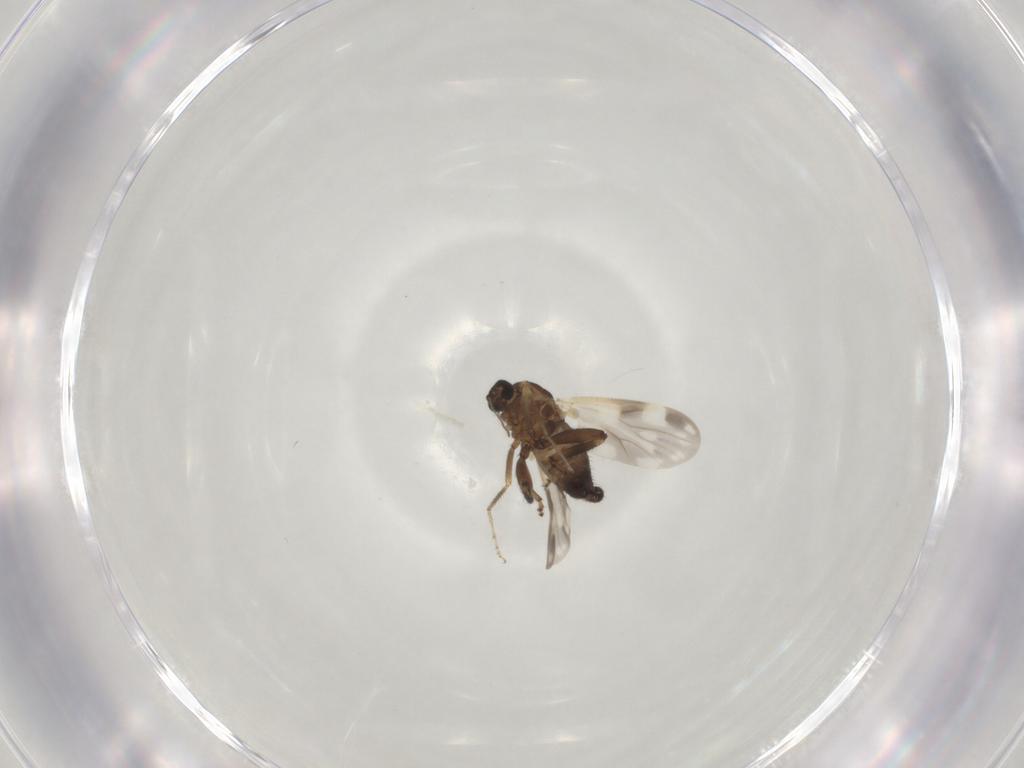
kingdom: Animalia
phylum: Arthropoda
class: Insecta
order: Diptera
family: Ceratopogonidae
